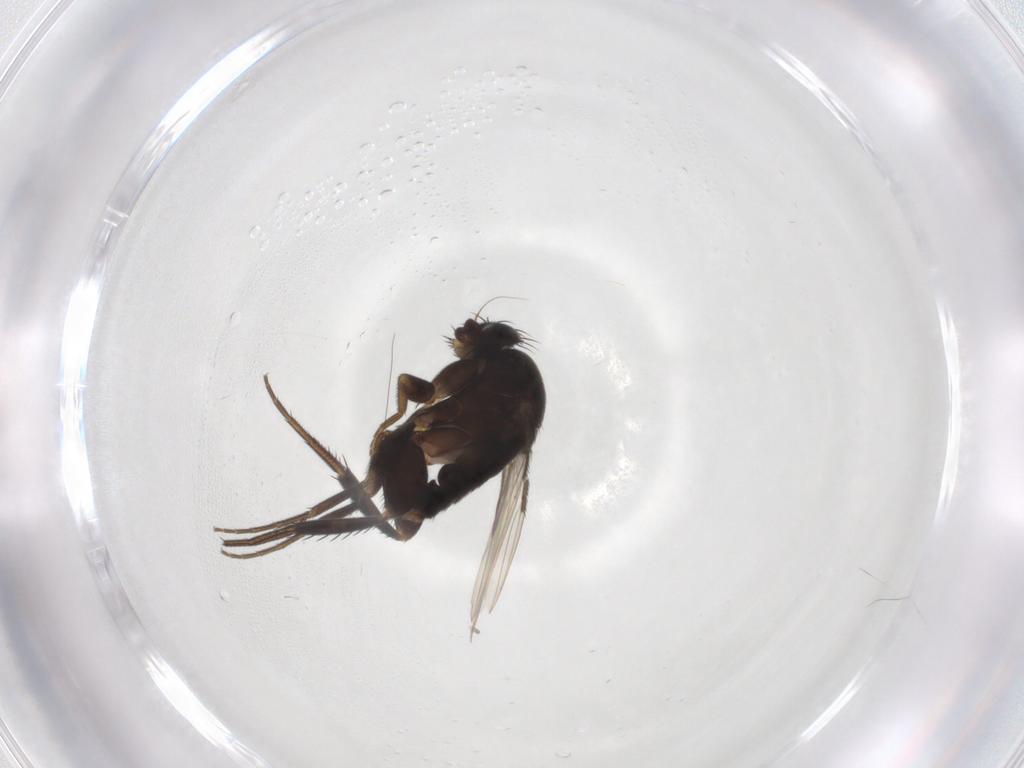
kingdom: Animalia
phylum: Arthropoda
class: Insecta
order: Diptera
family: Phoridae
